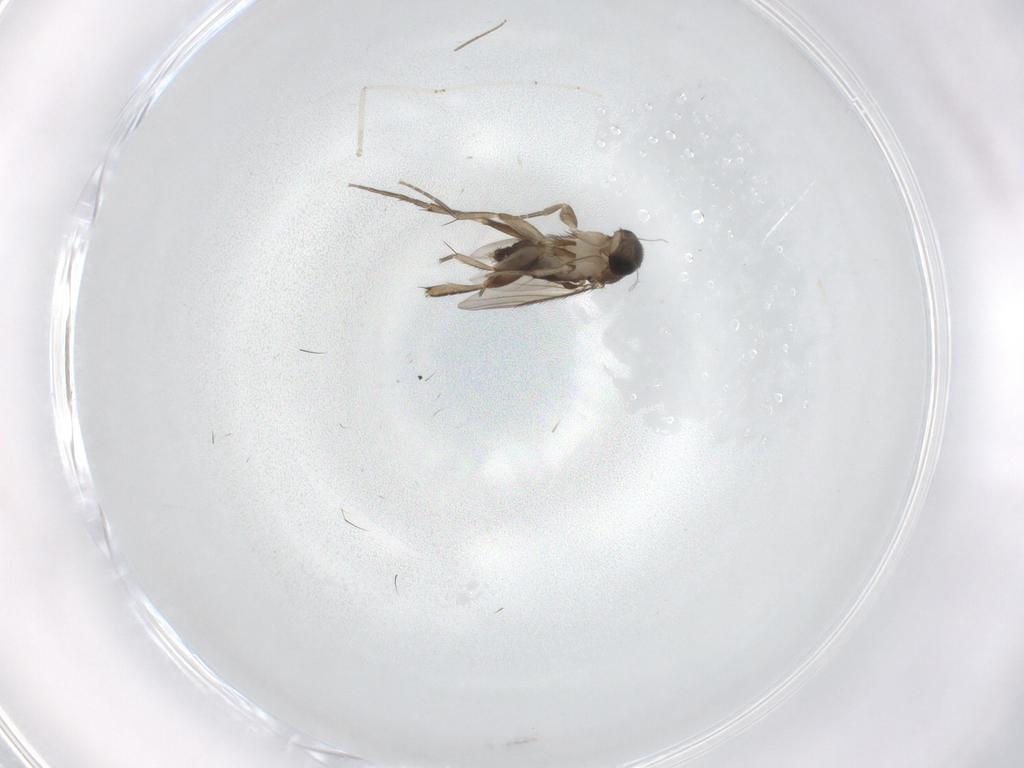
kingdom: Animalia
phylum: Arthropoda
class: Insecta
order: Diptera
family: Phoridae
